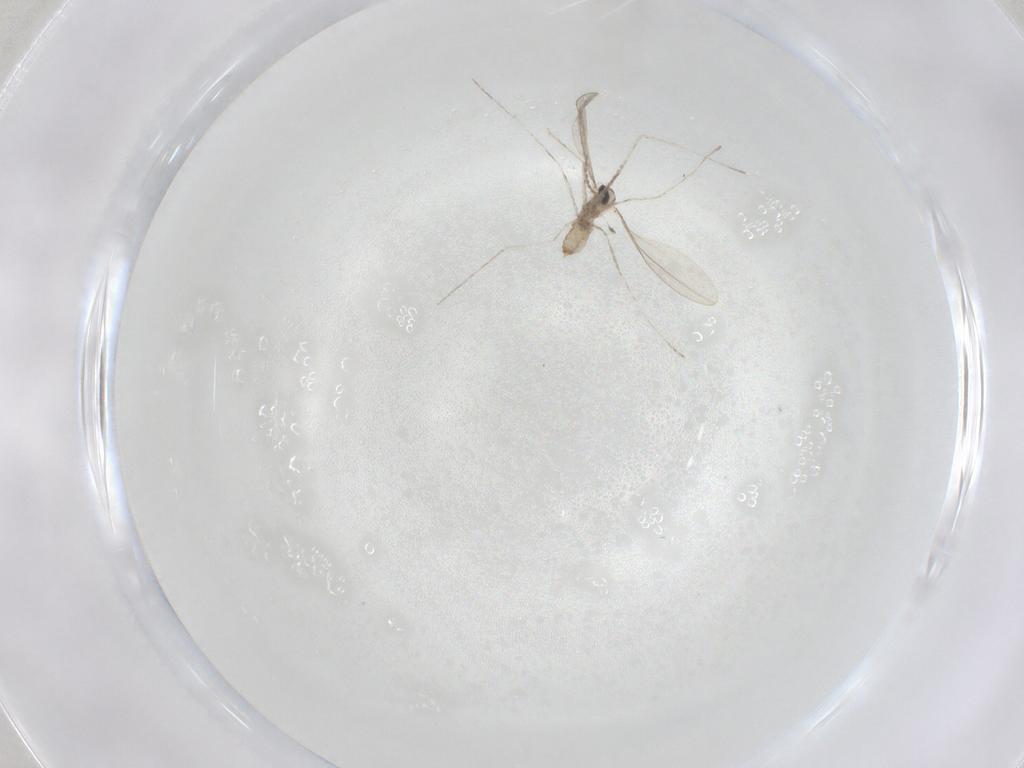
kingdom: Animalia
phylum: Arthropoda
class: Insecta
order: Diptera
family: Cecidomyiidae
